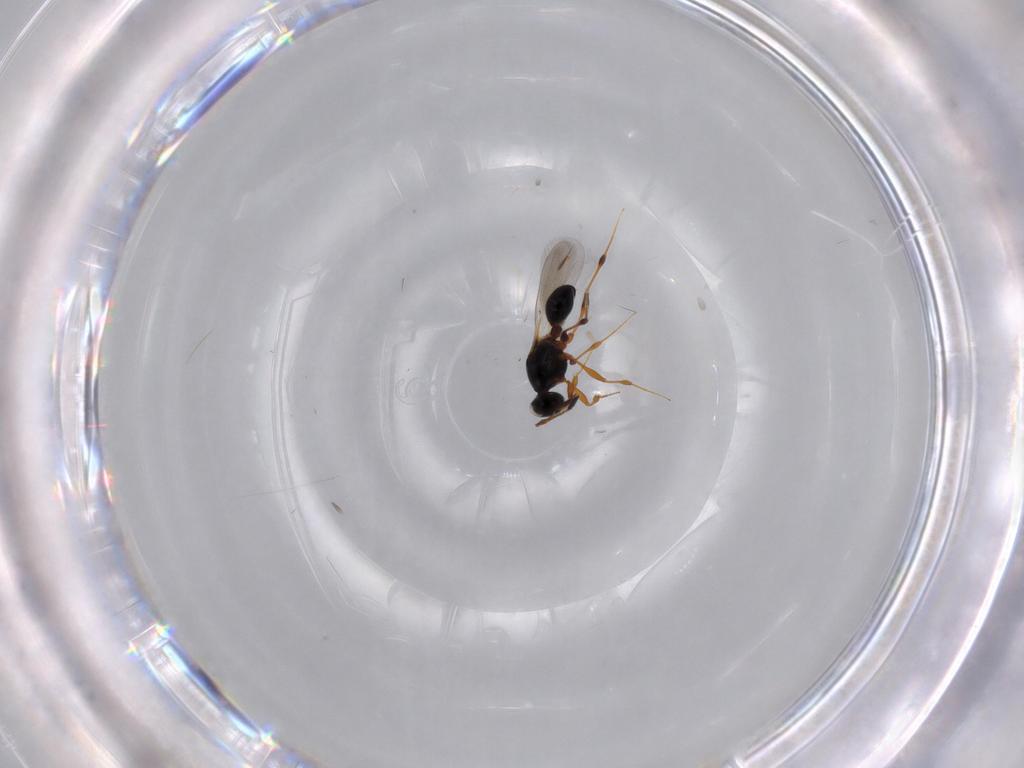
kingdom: Animalia
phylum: Arthropoda
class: Insecta
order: Hymenoptera
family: Platygastridae
